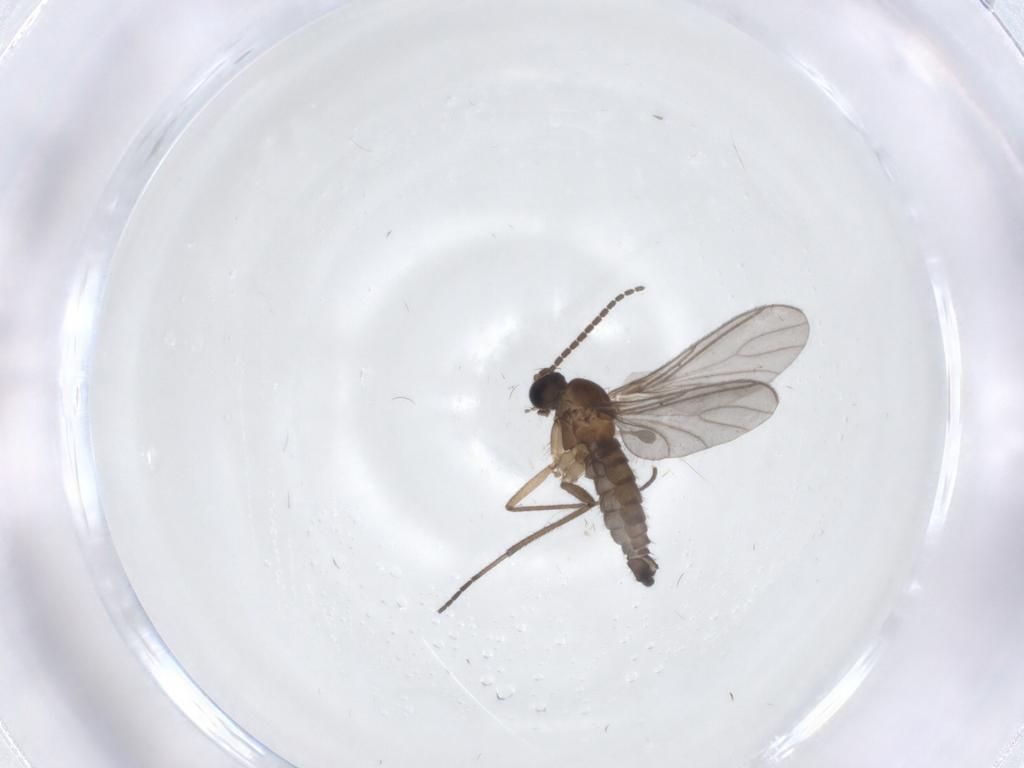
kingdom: Animalia
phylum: Arthropoda
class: Insecta
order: Diptera
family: Sciaridae
